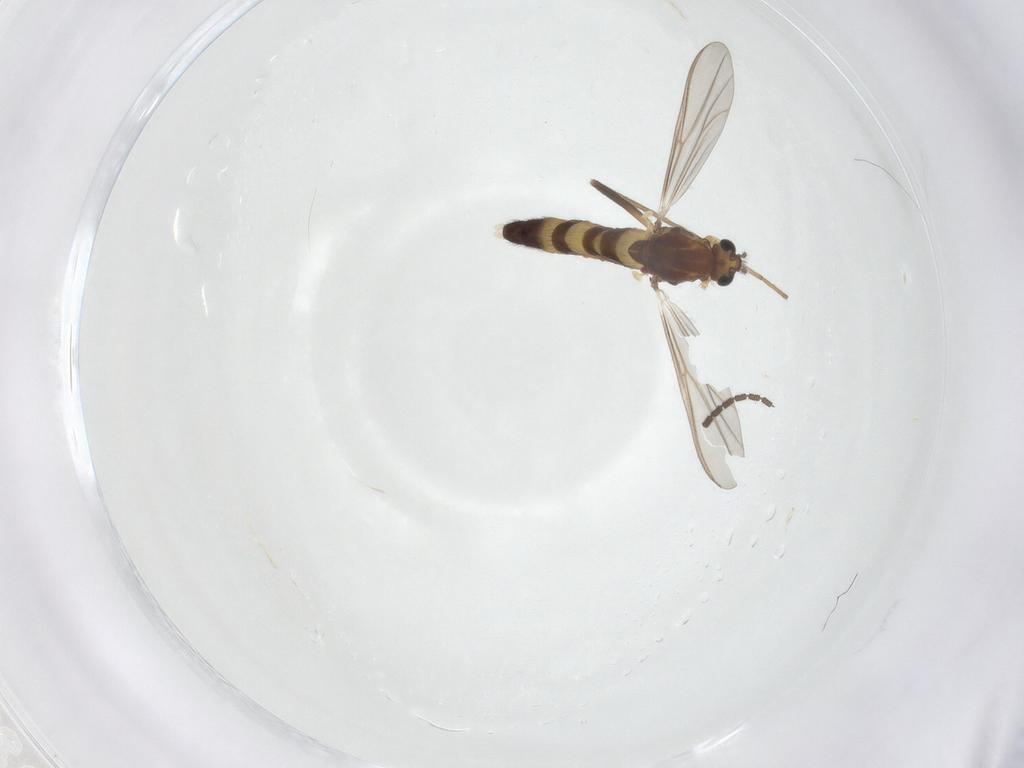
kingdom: Animalia
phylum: Arthropoda
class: Insecta
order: Diptera
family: Chironomidae
